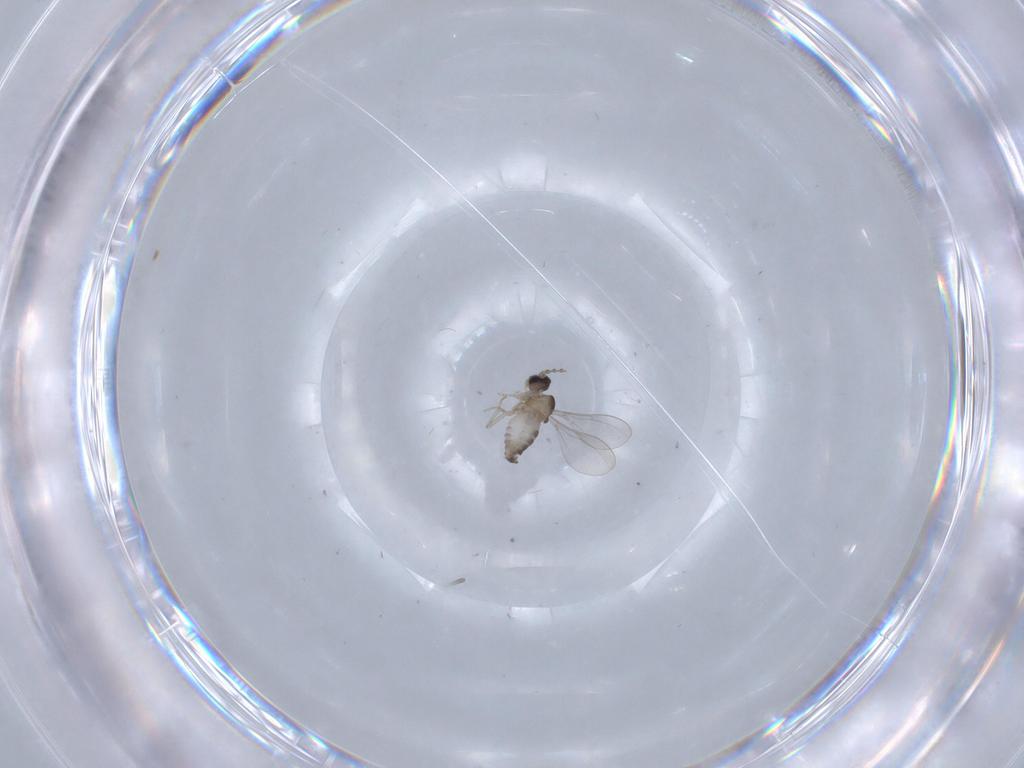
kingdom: Animalia
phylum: Arthropoda
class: Insecta
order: Diptera
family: Cecidomyiidae
